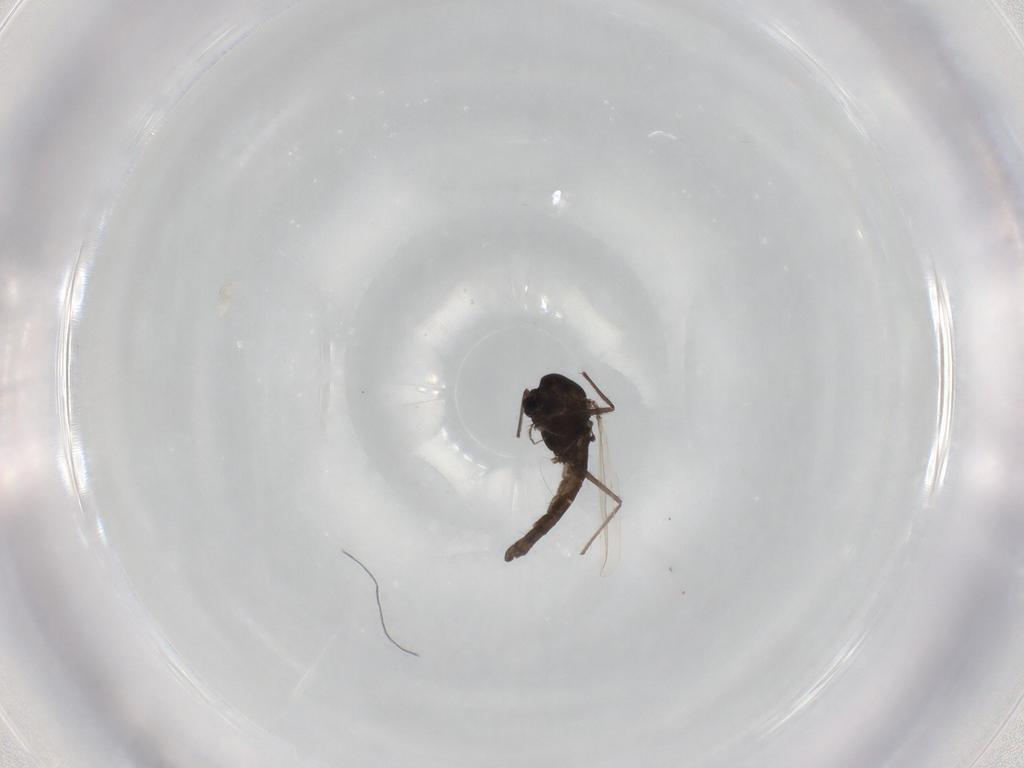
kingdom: Animalia
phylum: Arthropoda
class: Insecta
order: Diptera
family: Chironomidae
